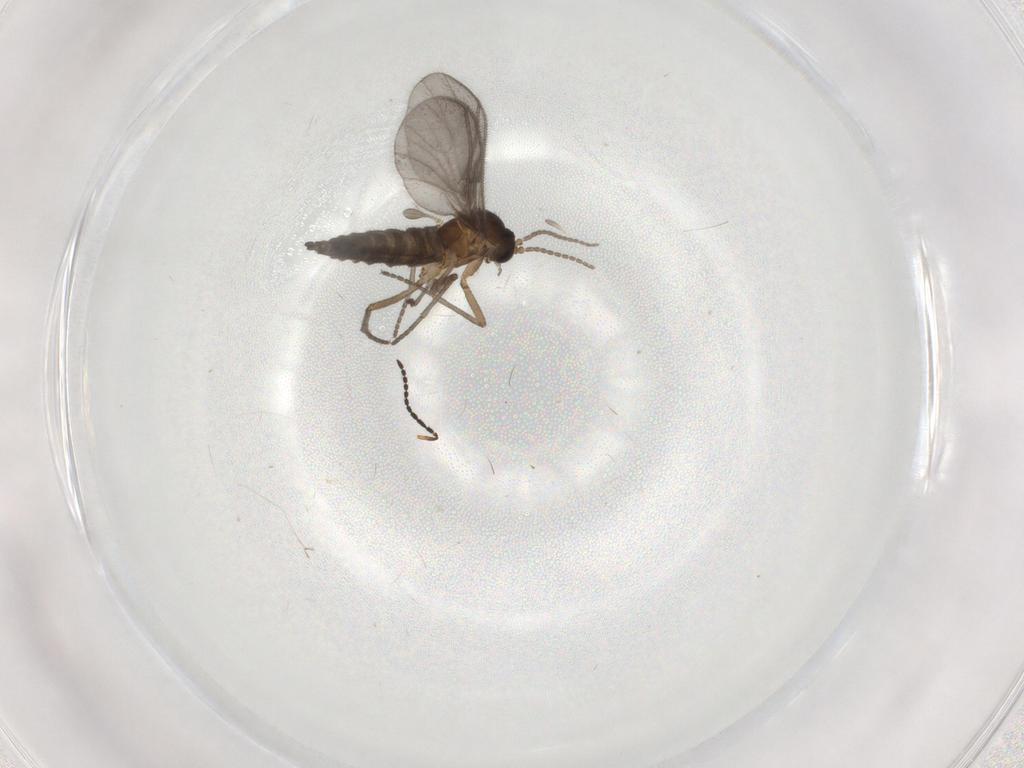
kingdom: Animalia
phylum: Arthropoda
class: Insecta
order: Diptera
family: Sciaridae
